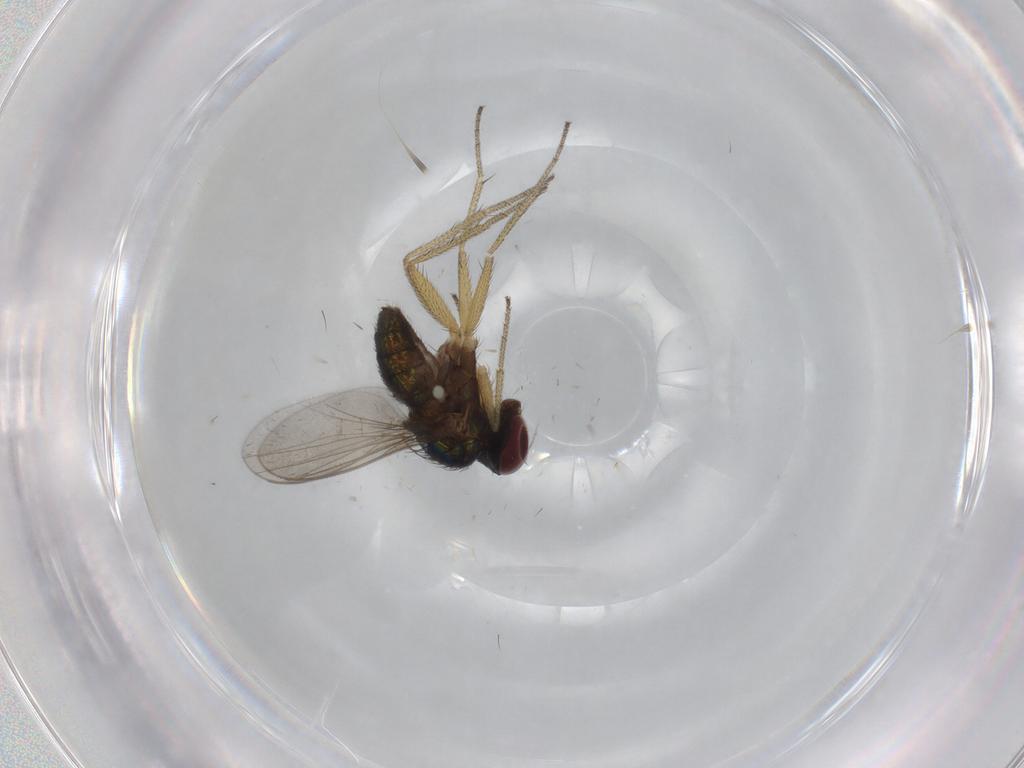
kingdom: Animalia
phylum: Arthropoda
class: Insecta
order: Diptera
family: Dolichopodidae
